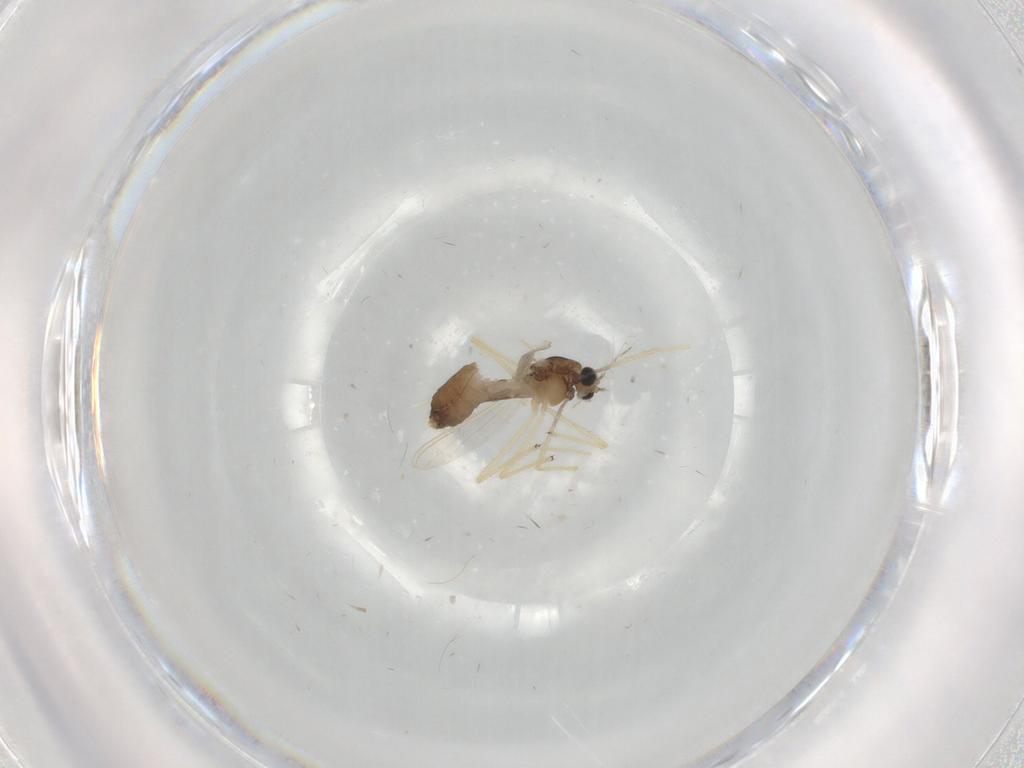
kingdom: Animalia
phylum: Arthropoda
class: Insecta
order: Diptera
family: Chironomidae
